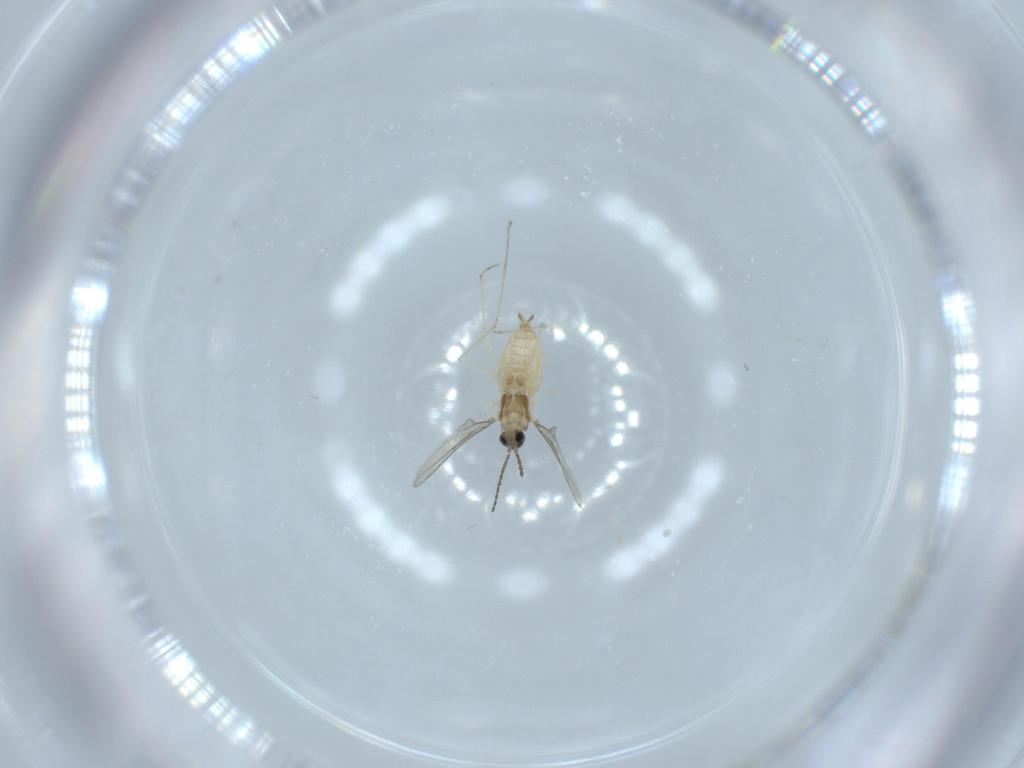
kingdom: Animalia
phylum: Arthropoda
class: Insecta
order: Diptera
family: Cecidomyiidae
